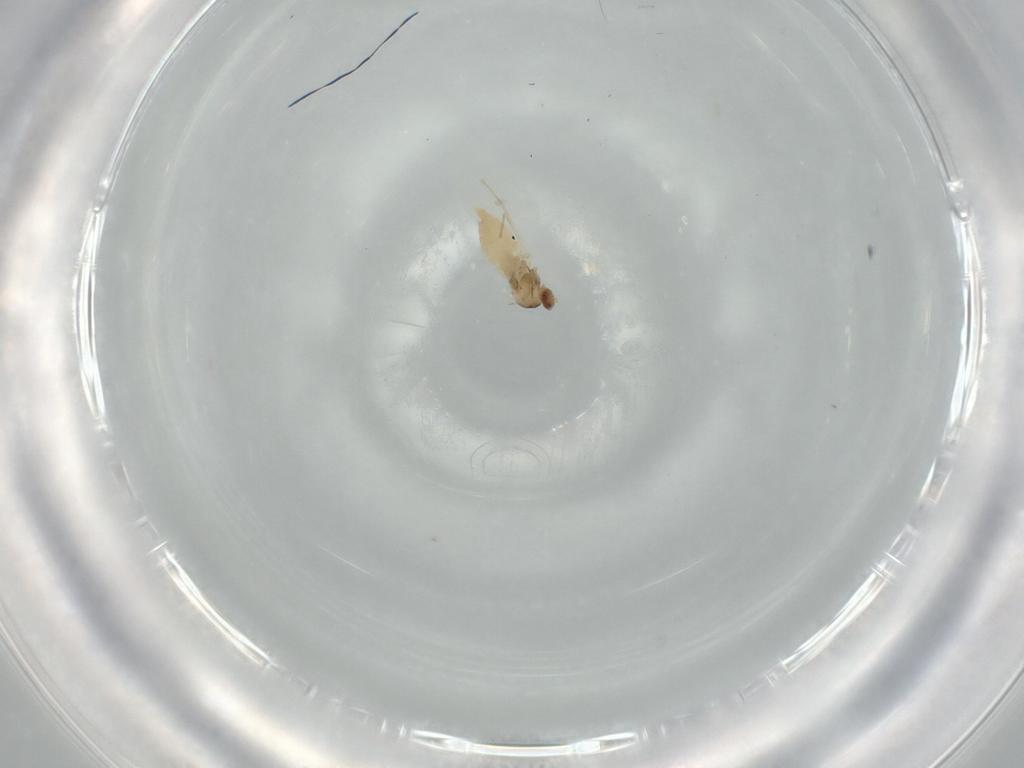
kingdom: Animalia
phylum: Arthropoda
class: Insecta
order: Diptera
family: Cecidomyiidae
